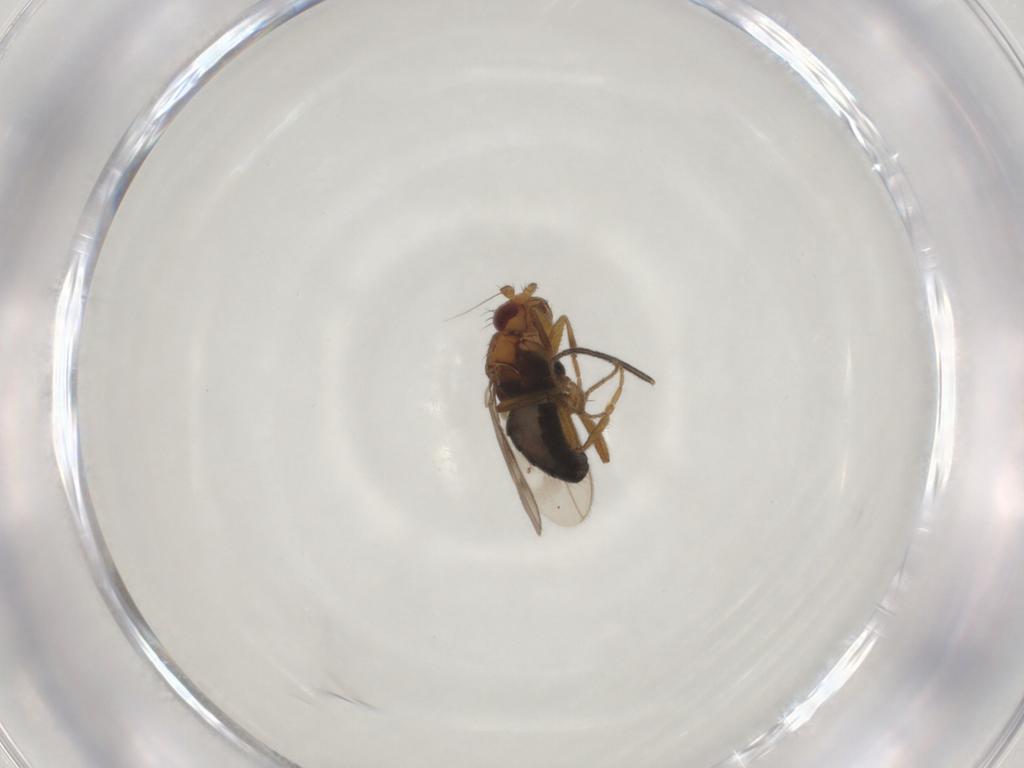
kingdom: Animalia
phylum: Arthropoda
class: Insecta
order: Diptera
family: Sphaeroceridae
